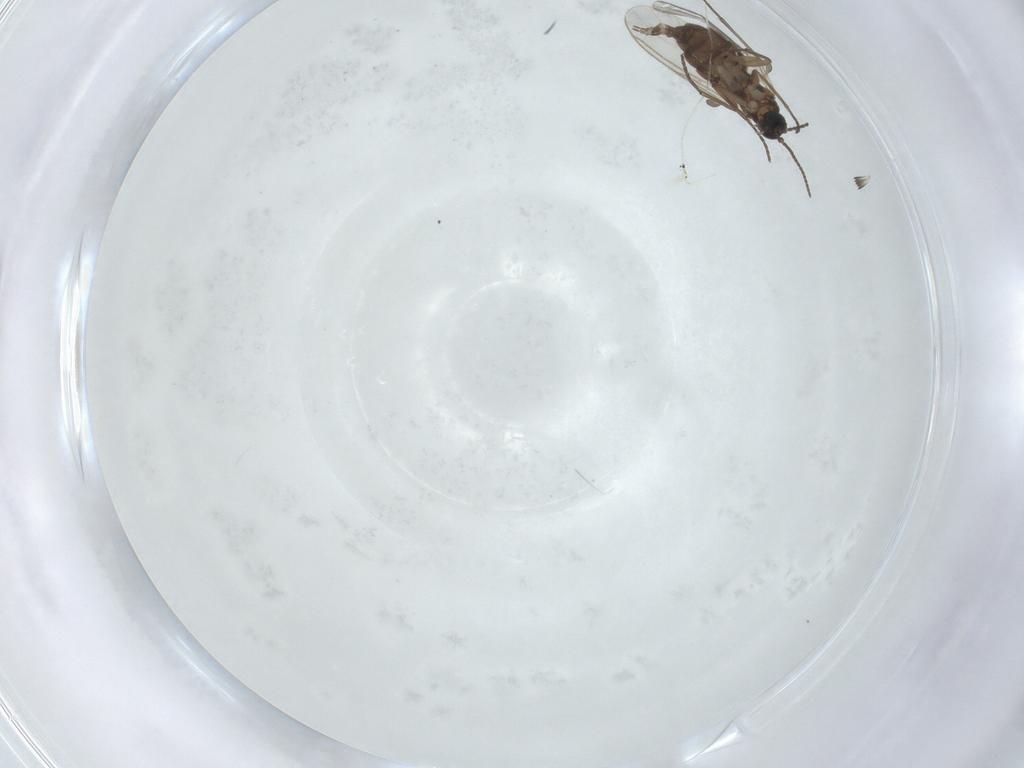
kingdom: Animalia
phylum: Arthropoda
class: Insecta
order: Diptera
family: Sciaridae
